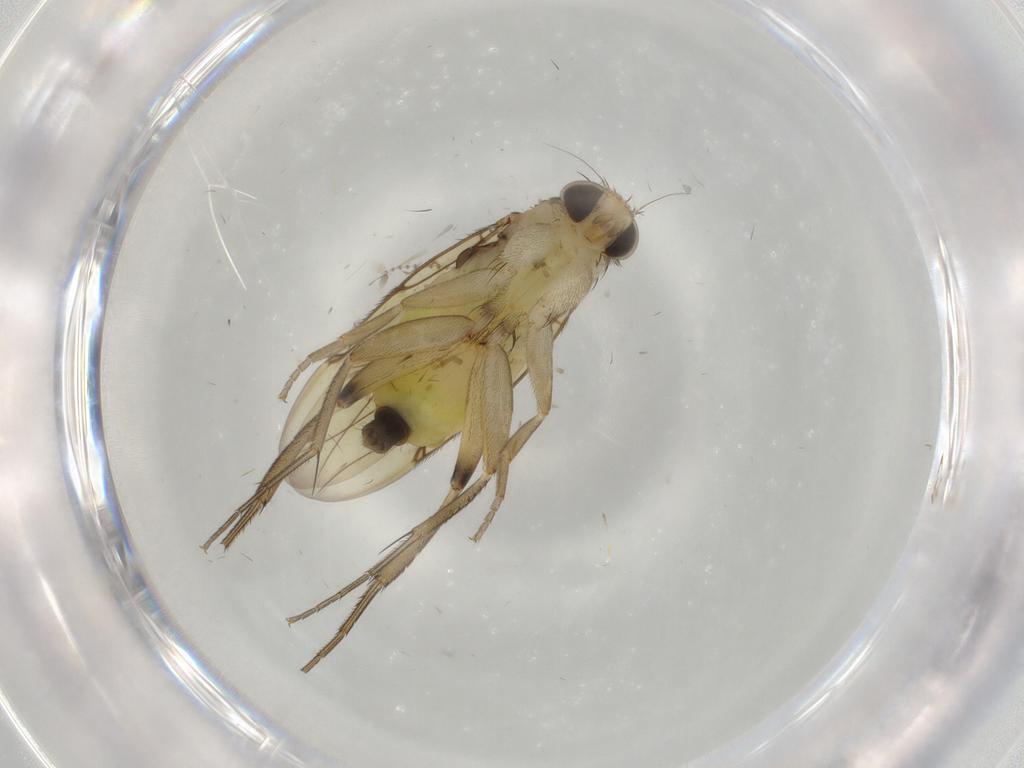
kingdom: Animalia
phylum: Arthropoda
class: Insecta
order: Diptera
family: Phoridae
